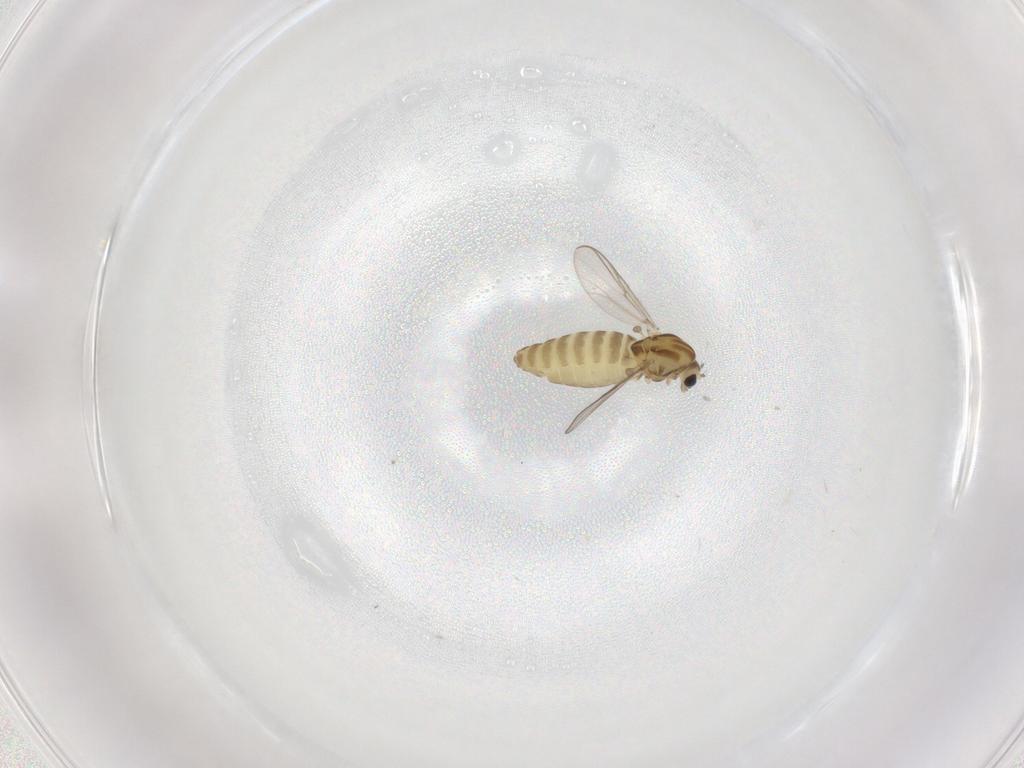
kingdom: Animalia
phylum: Arthropoda
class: Insecta
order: Diptera
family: Chironomidae
